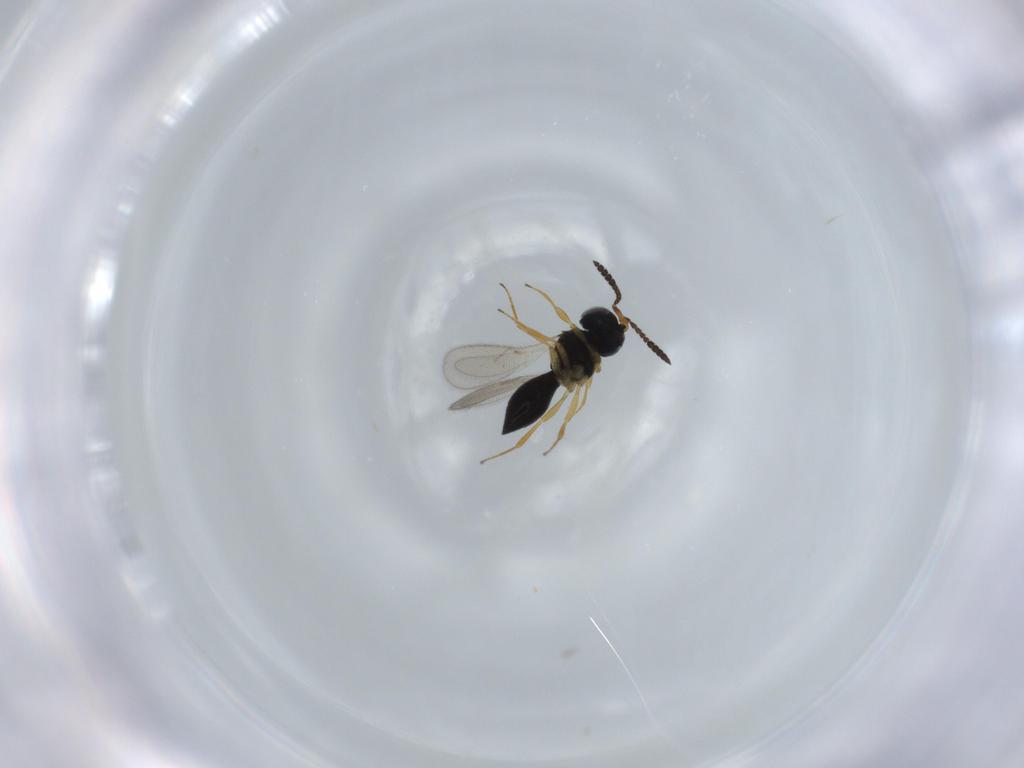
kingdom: Animalia
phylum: Arthropoda
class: Insecta
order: Hymenoptera
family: Scelionidae
